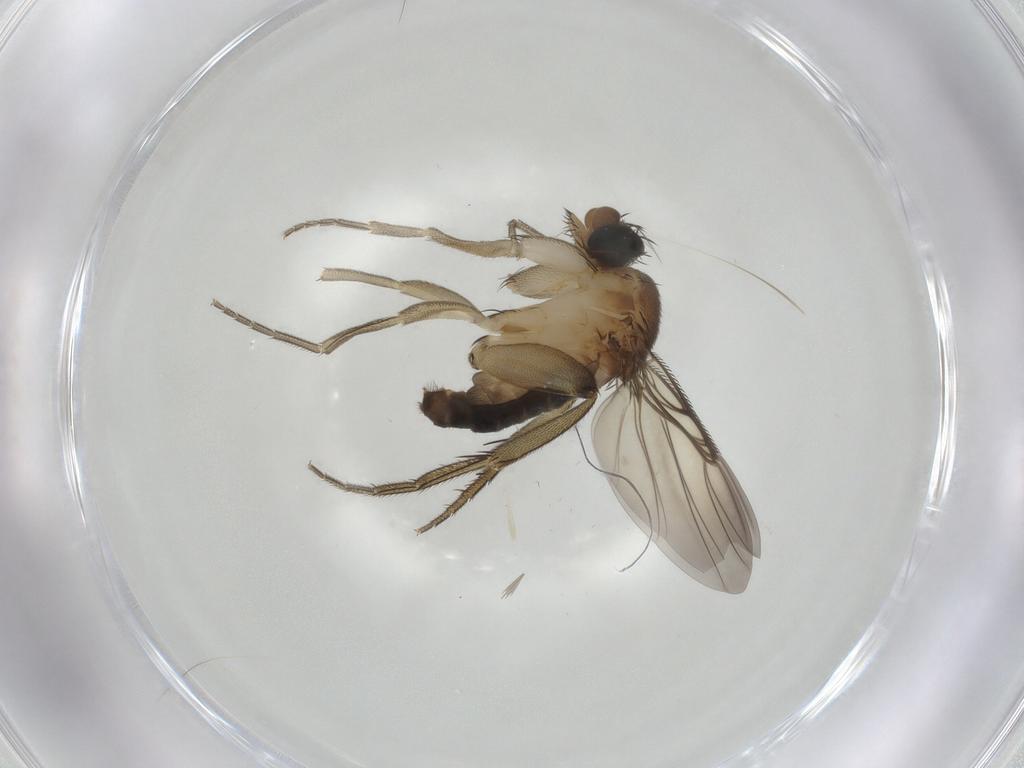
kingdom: Animalia
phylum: Arthropoda
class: Insecta
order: Diptera
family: Phoridae
